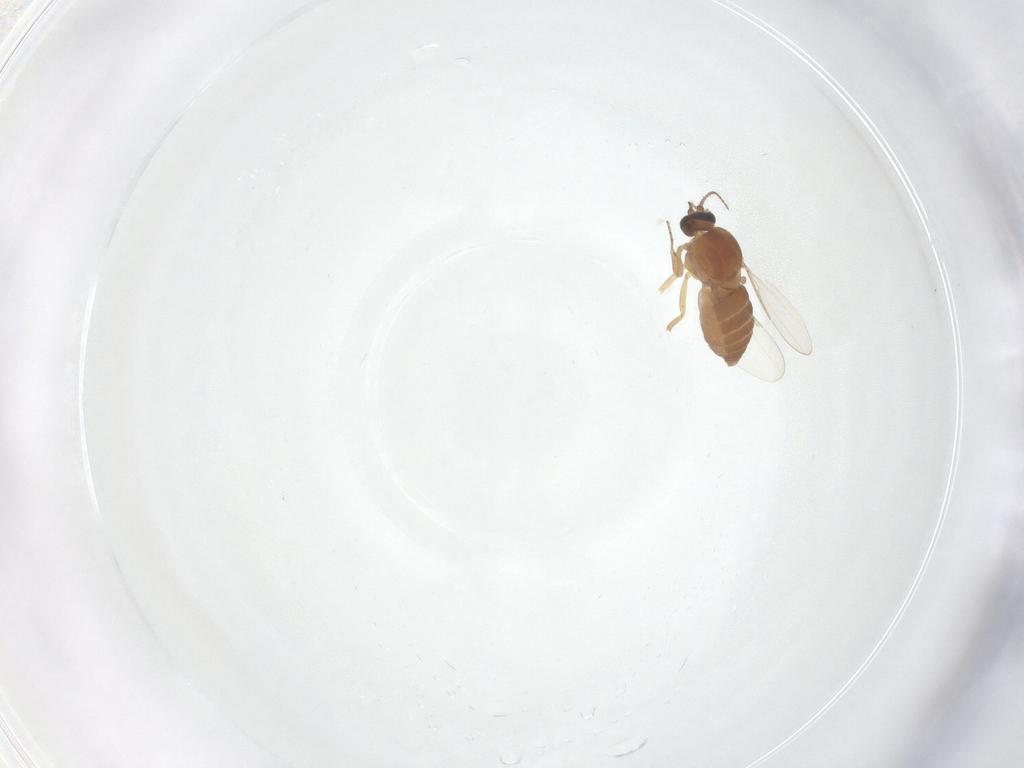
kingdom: Animalia
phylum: Arthropoda
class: Insecta
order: Diptera
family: Ceratopogonidae
